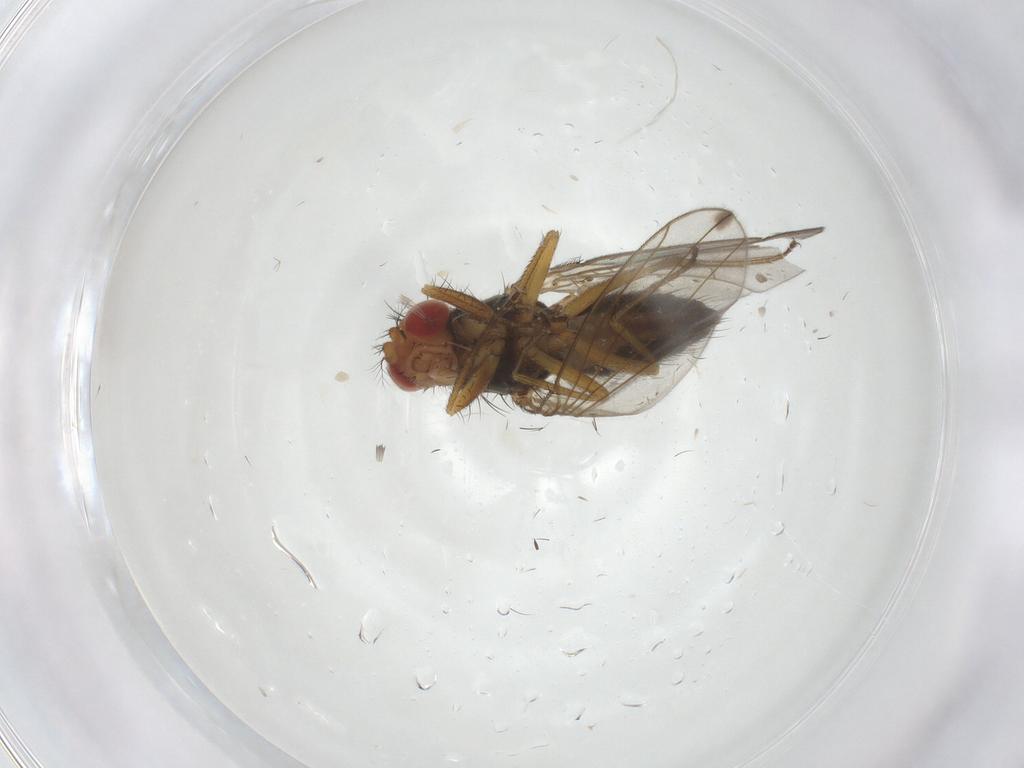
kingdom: Animalia
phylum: Arthropoda
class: Insecta
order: Diptera
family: Drosophilidae
